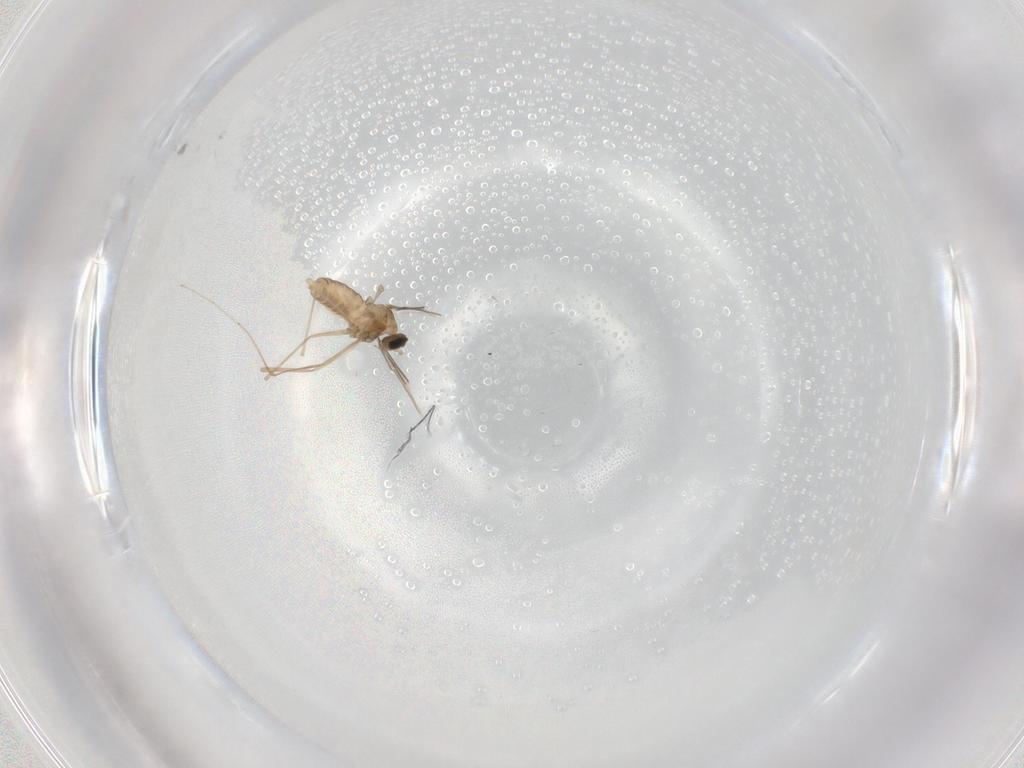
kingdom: Animalia
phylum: Arthropoda
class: Insecta
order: Diptera
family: Cecidomyiidae
